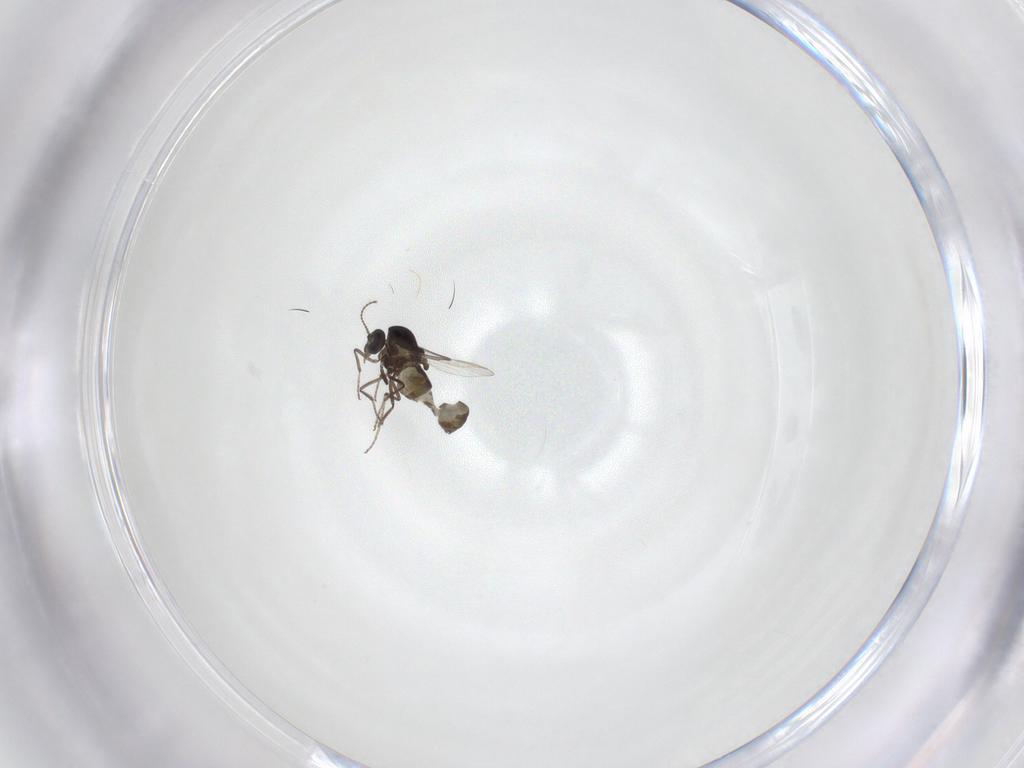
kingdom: Animalia
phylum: Arthropoda
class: Insecta
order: Diptera
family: Ceratopogonidae
